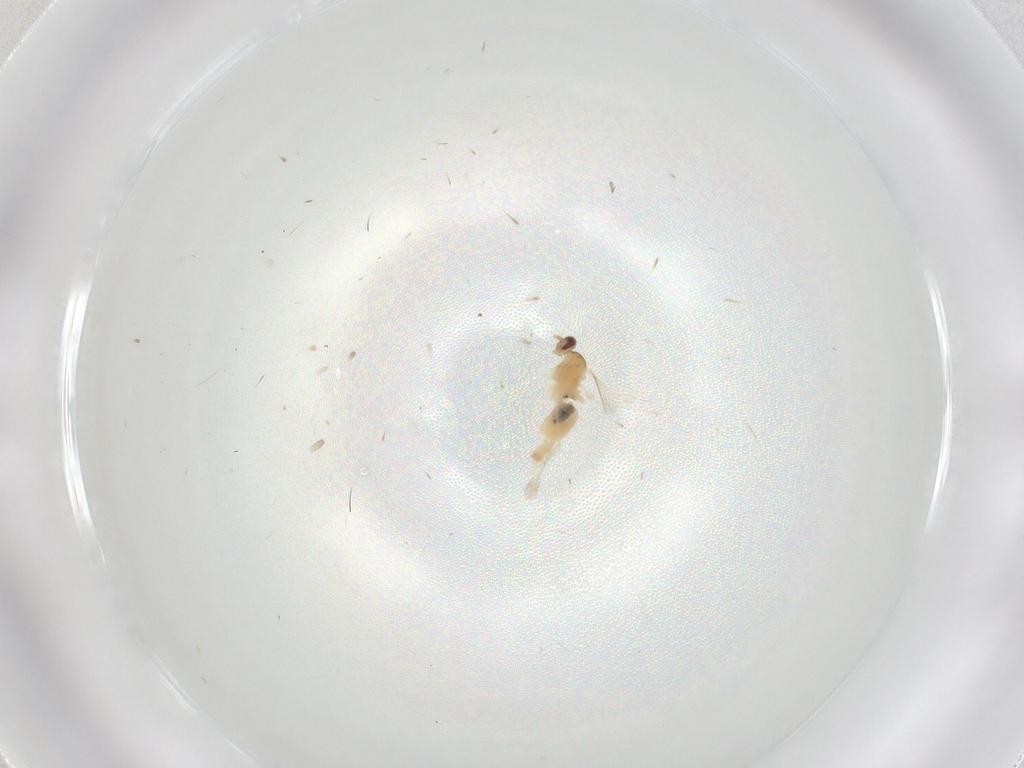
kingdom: Animalia
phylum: Arthropoda
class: Insecta
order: Diptera
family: Cecidomyiidae
